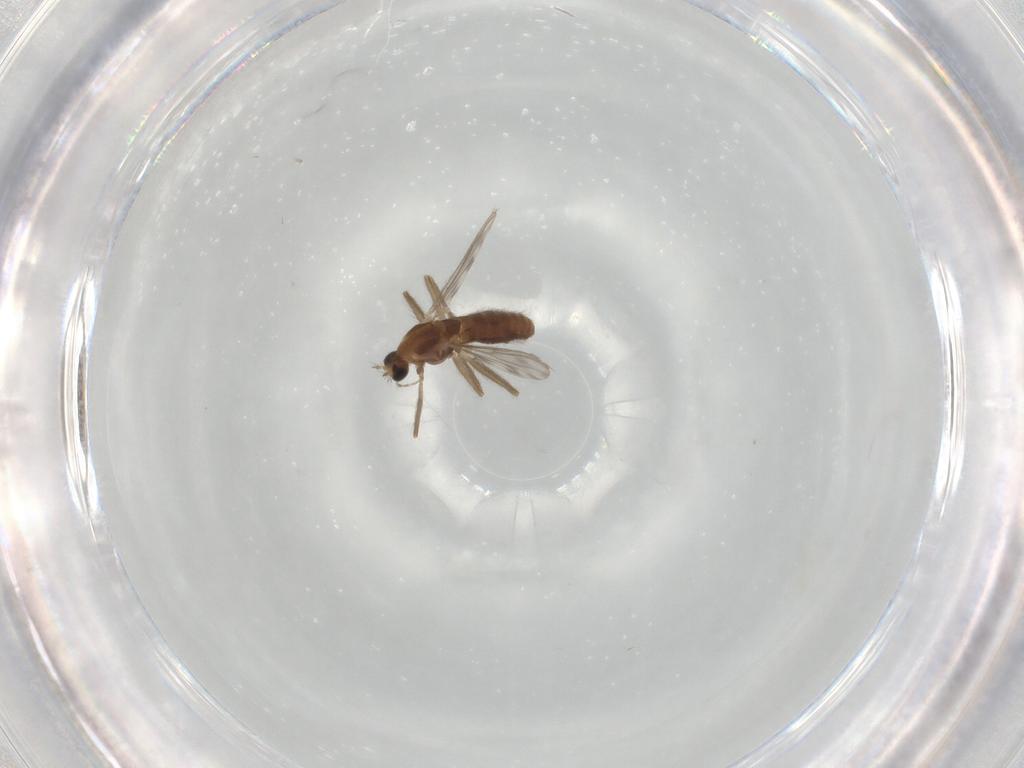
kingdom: Animalia
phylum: Arthropoda
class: Insecta
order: Diptera
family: Chironomidae
